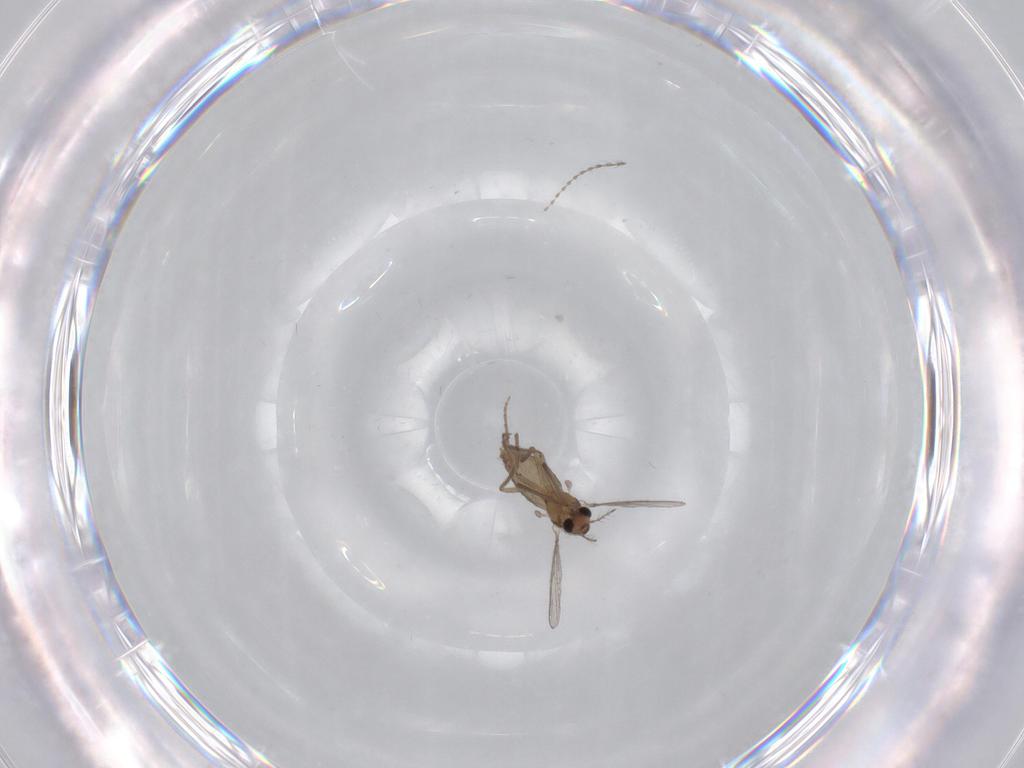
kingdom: Animalia
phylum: Arthropoda
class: Insecta
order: Diptera
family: Chironomidae
